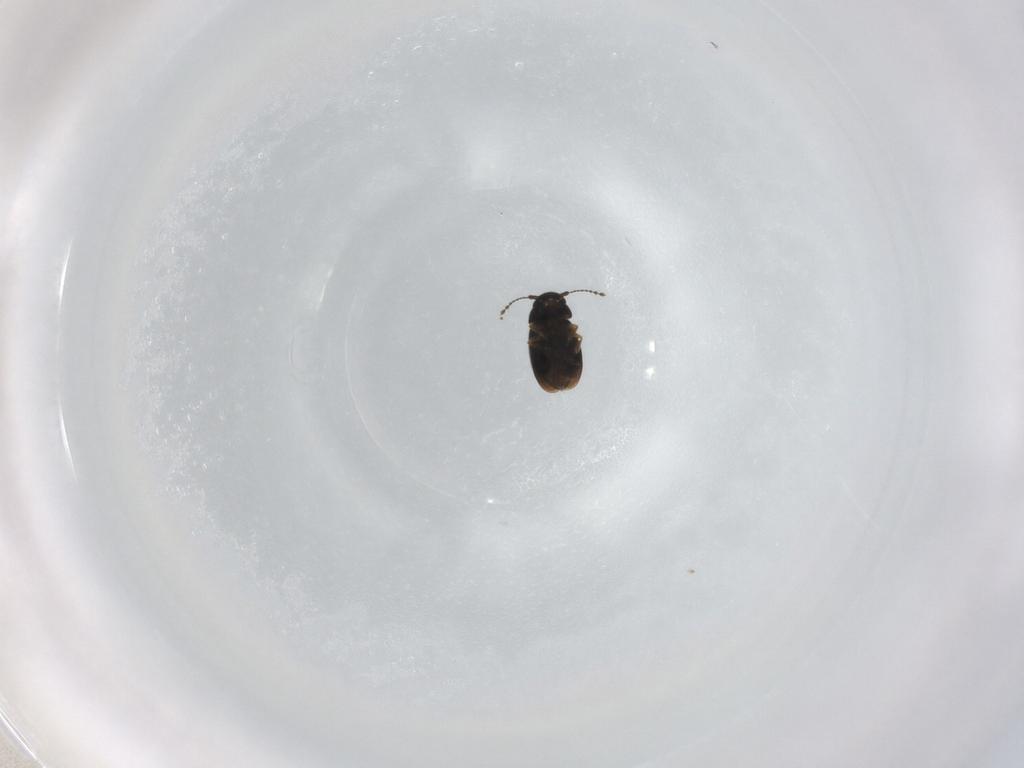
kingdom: Animalia
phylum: Arthropoda
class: Insecta
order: Coleoptera
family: Ptiliidae
